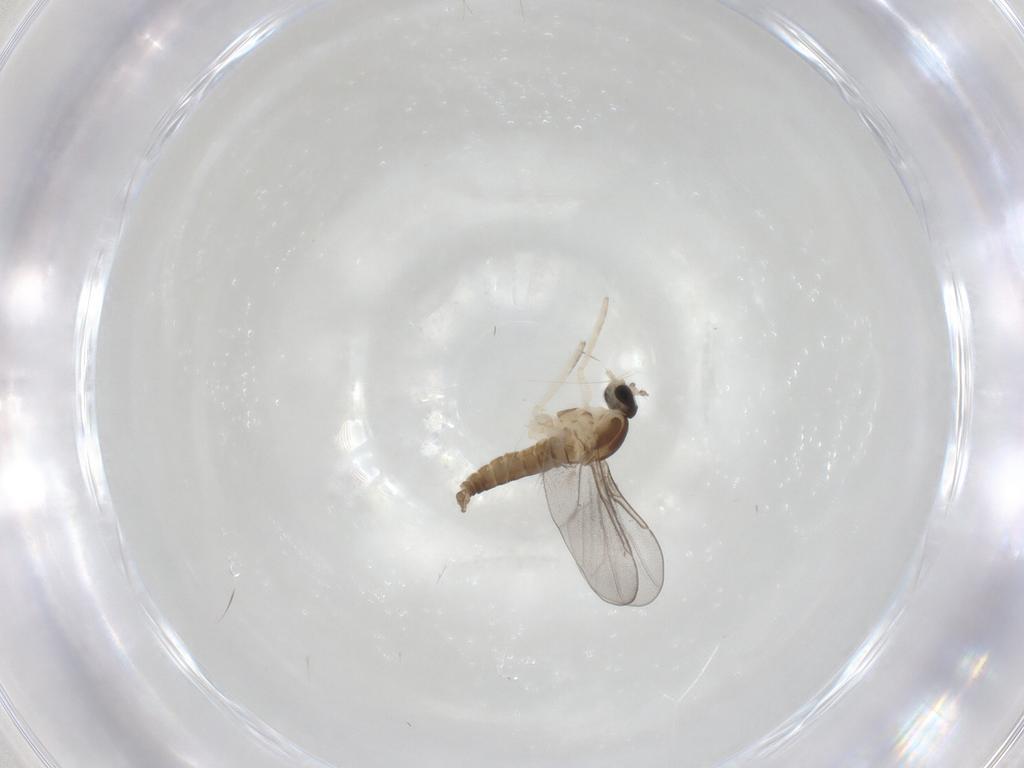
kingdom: Animalia
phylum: Arthropoda
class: Insecta
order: Diptera
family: Cecidomyiidae
